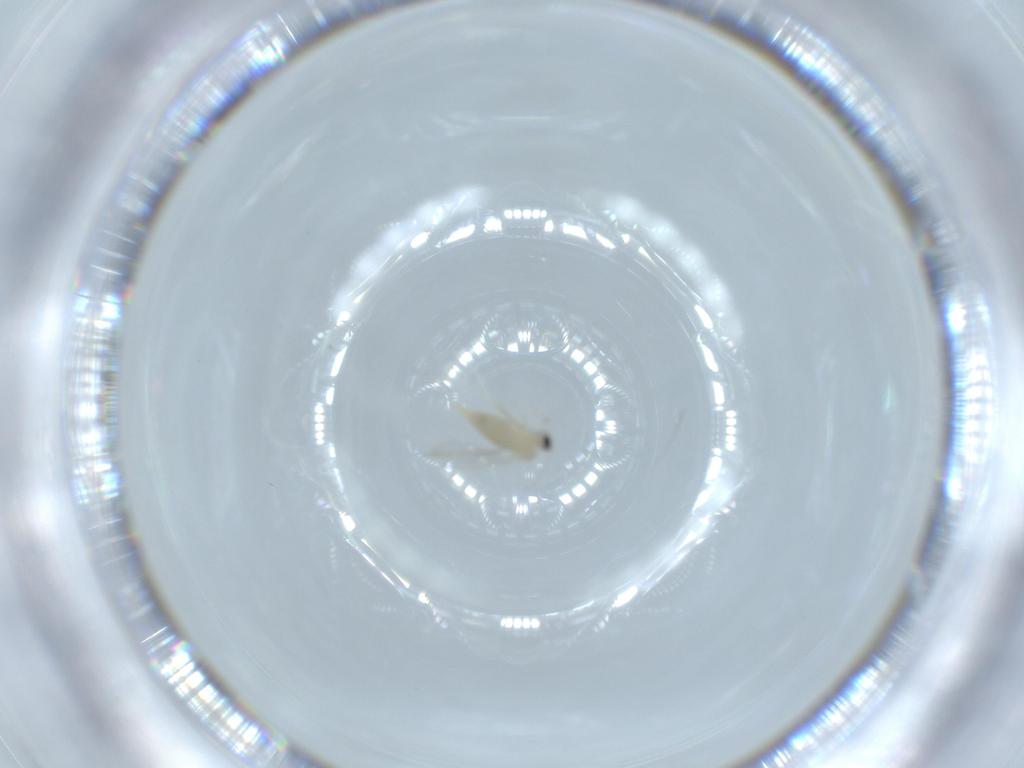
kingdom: Animalia
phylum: Arthropoda
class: Insecta
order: Diptera
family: Cecidomyiidae
